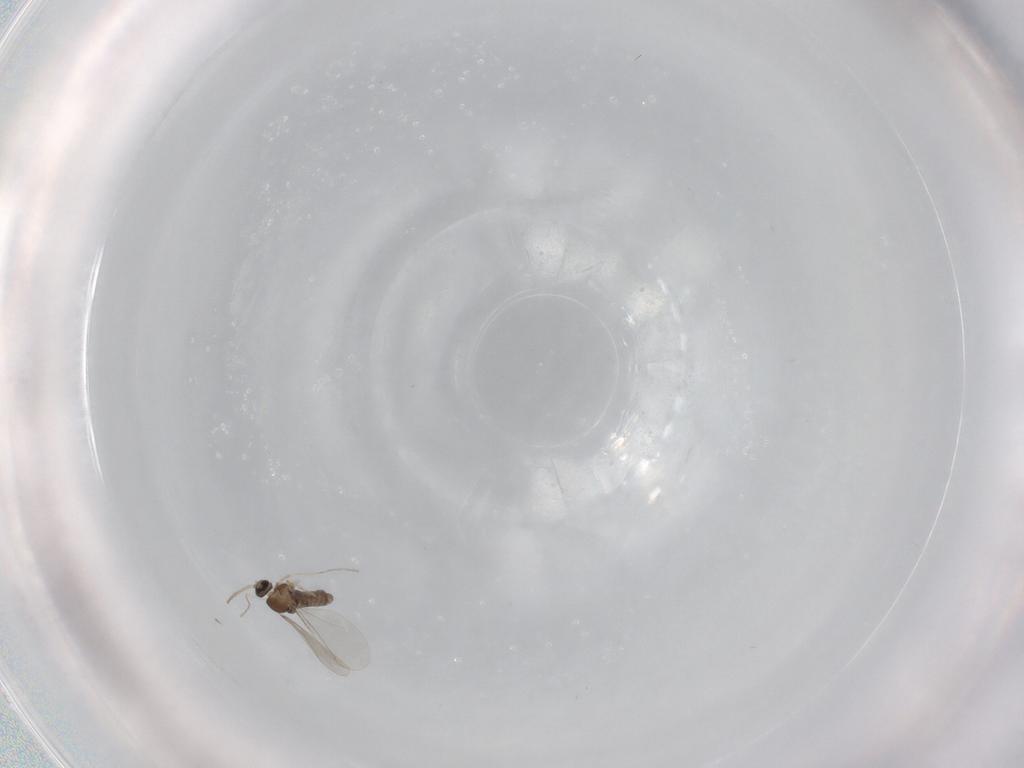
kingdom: Animalia
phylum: Arthropoda
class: Insecta
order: Diptera
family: Cecidomyiidae
